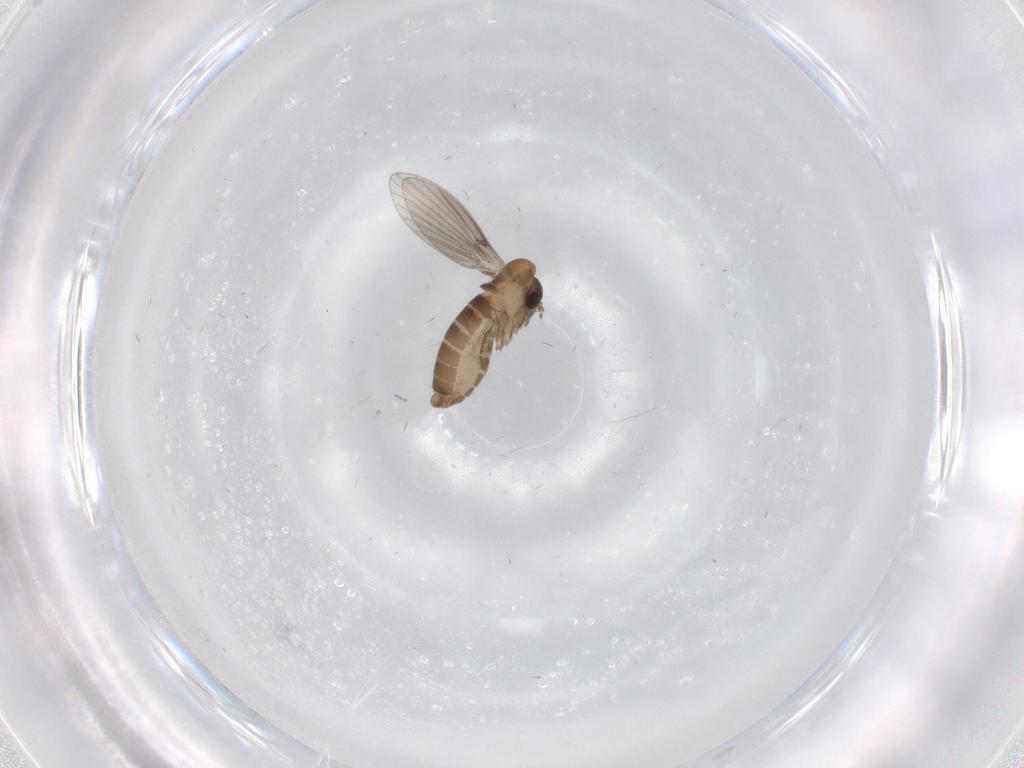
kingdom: Animalia
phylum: Arthropoda
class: Insecta
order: Diptera
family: Psychodidae
